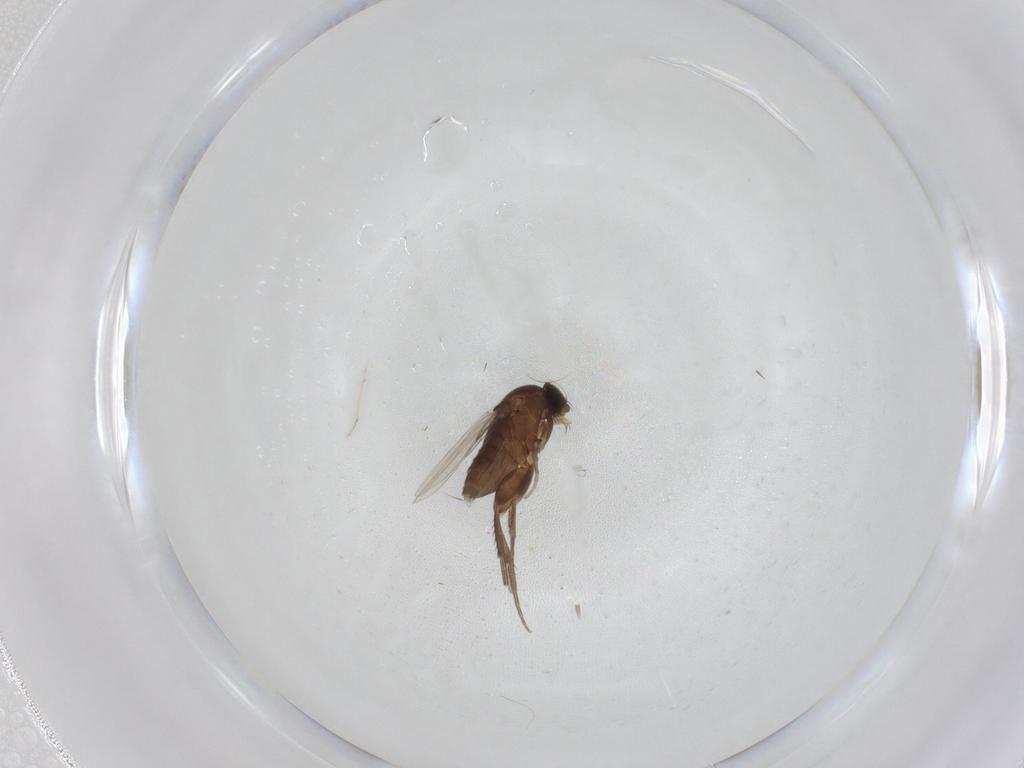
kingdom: Animalia
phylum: Arthropoda
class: Insecta
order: Diptera
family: Phoridae
